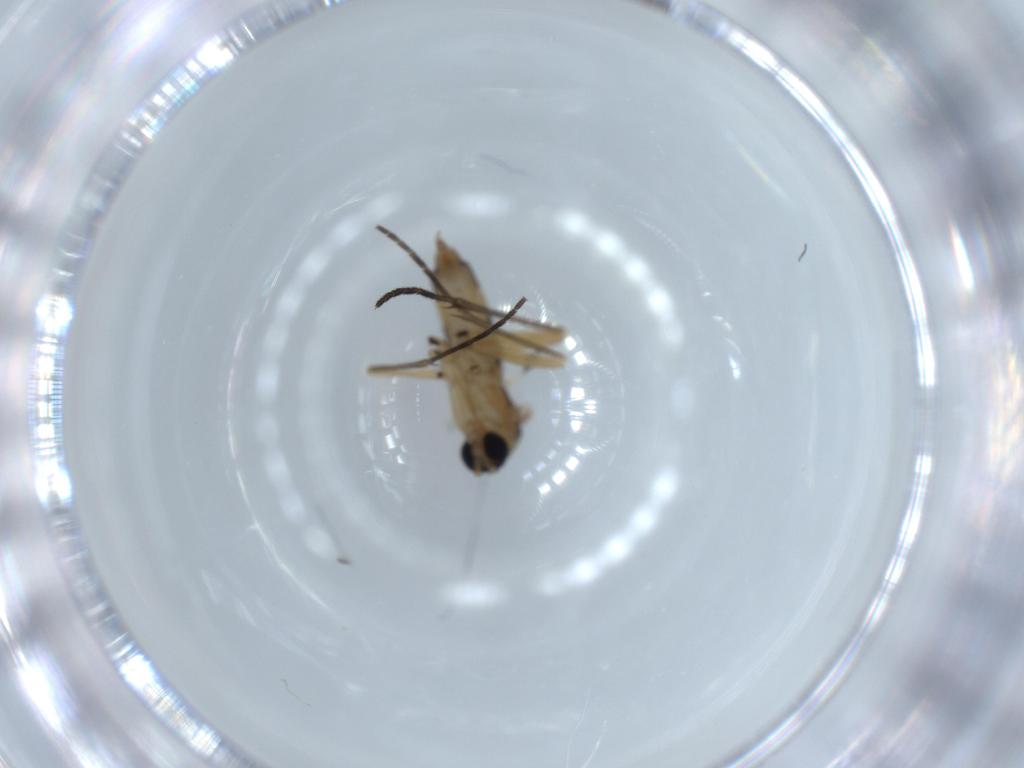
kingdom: Animalia
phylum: Arthropoda
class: Insecta
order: Diptera
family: Sciaridae
